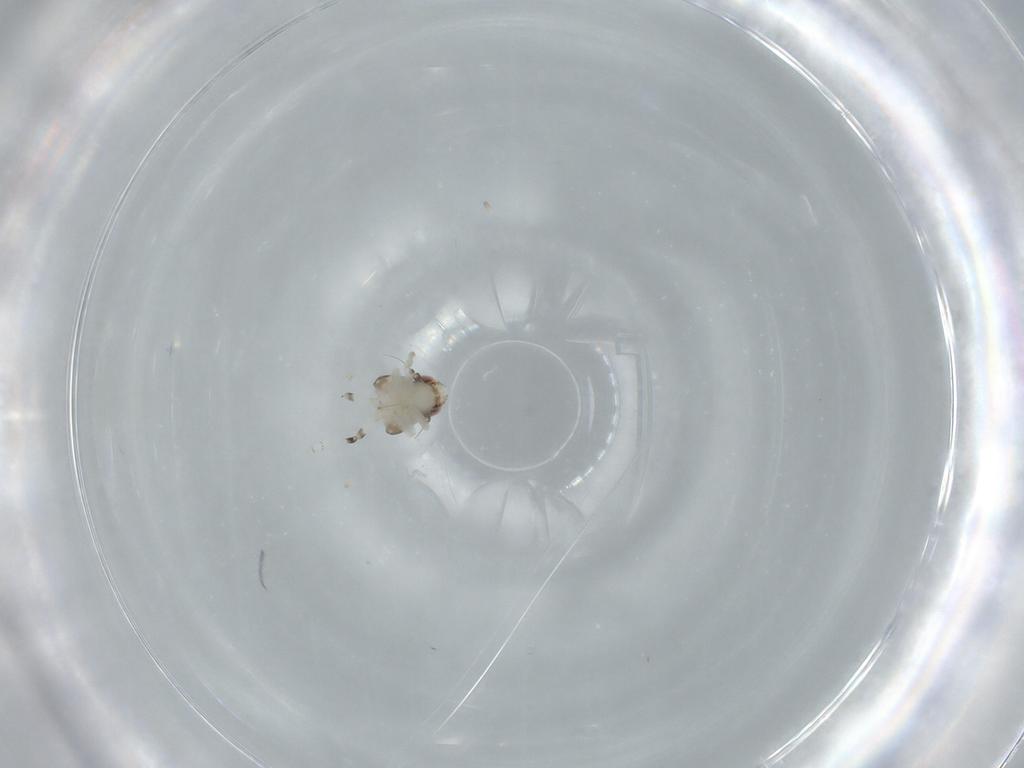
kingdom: Animalia
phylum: Arthropoda
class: Insecta
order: Hemiptera
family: Nogodinidae
